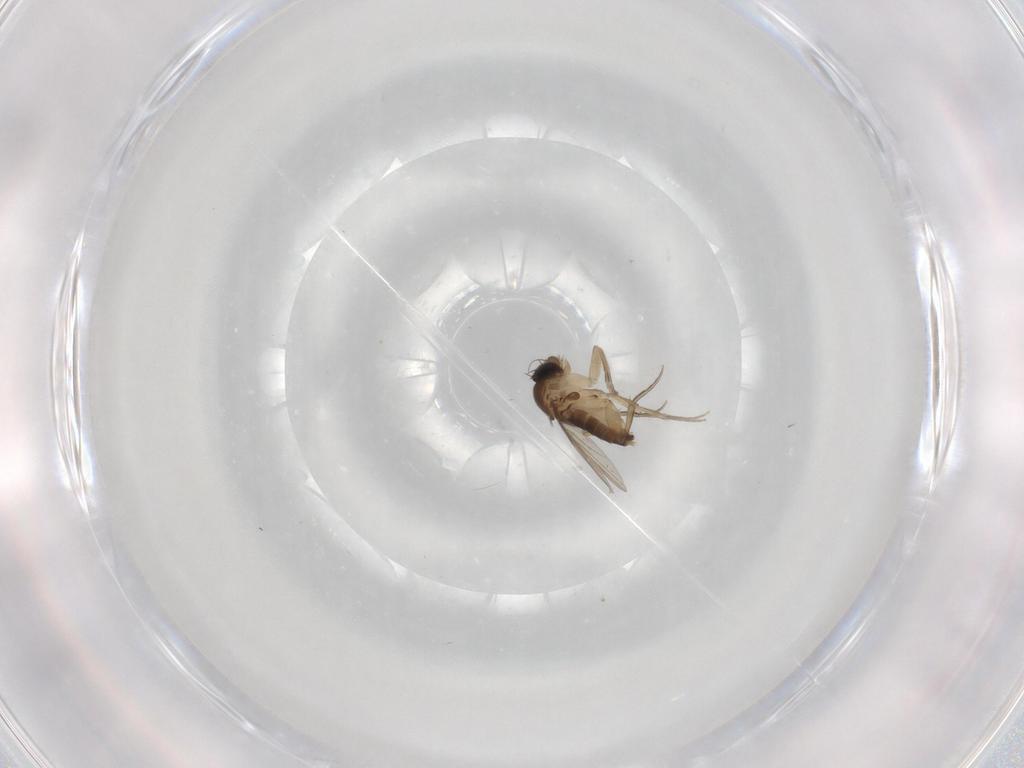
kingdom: Animalia
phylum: Arthropoda
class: Insecta
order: Diptera
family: Phoridae
